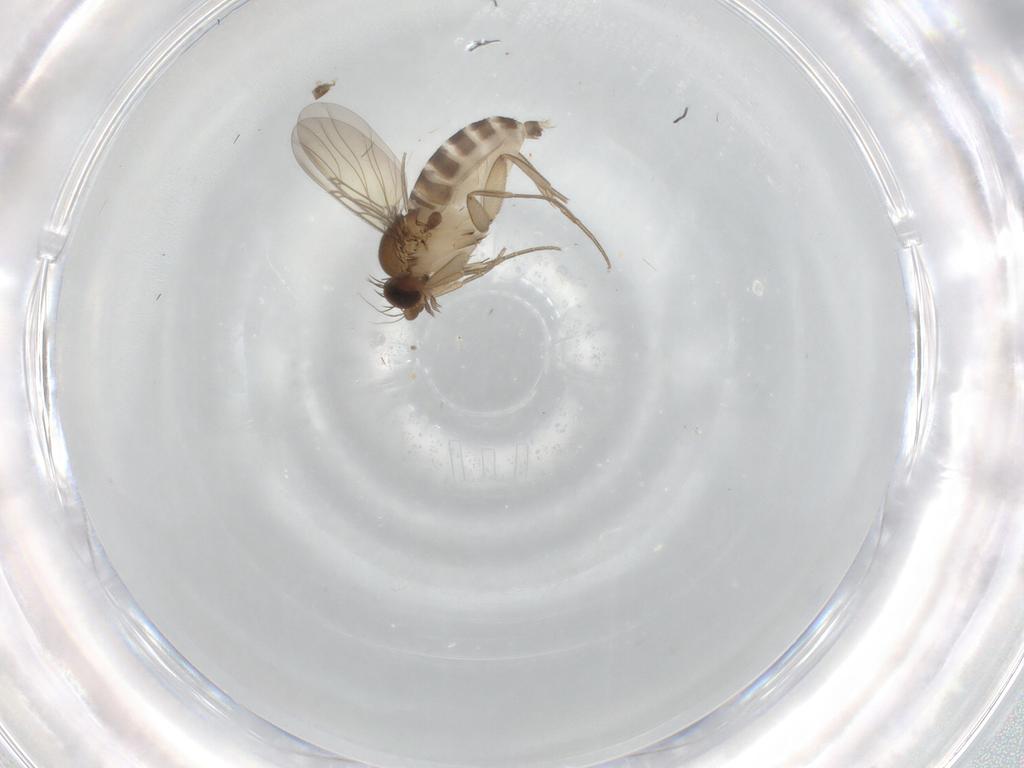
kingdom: Animalia
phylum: Arthropoda
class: Insecta
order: Diptera
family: Phoridae
